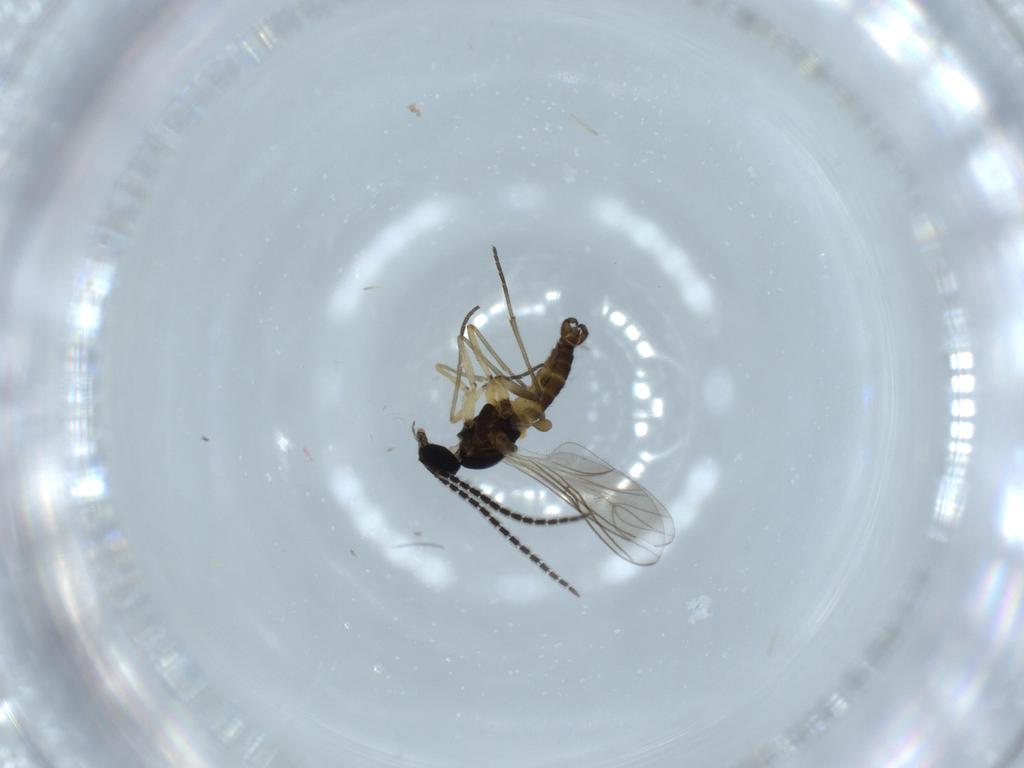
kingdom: Animalia
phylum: Arthropoda
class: Insecta
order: Diptera
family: Sciaridae
